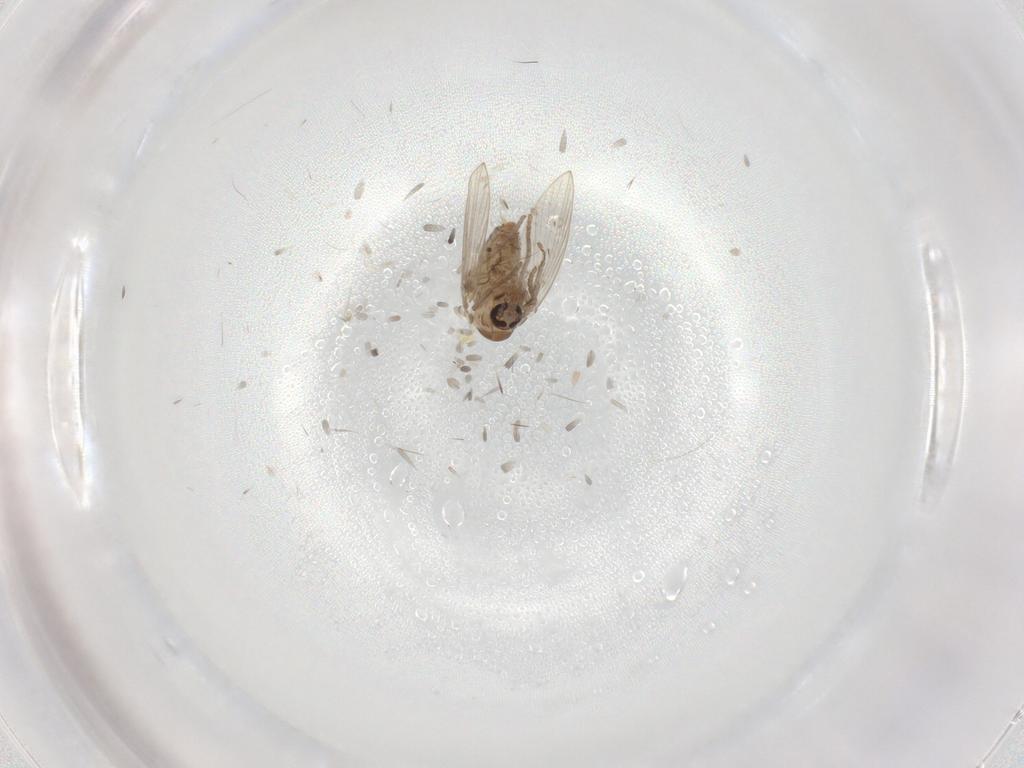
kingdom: Animalia
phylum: Arthropoda
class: Insecta
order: Diptera
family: Psychodidae
